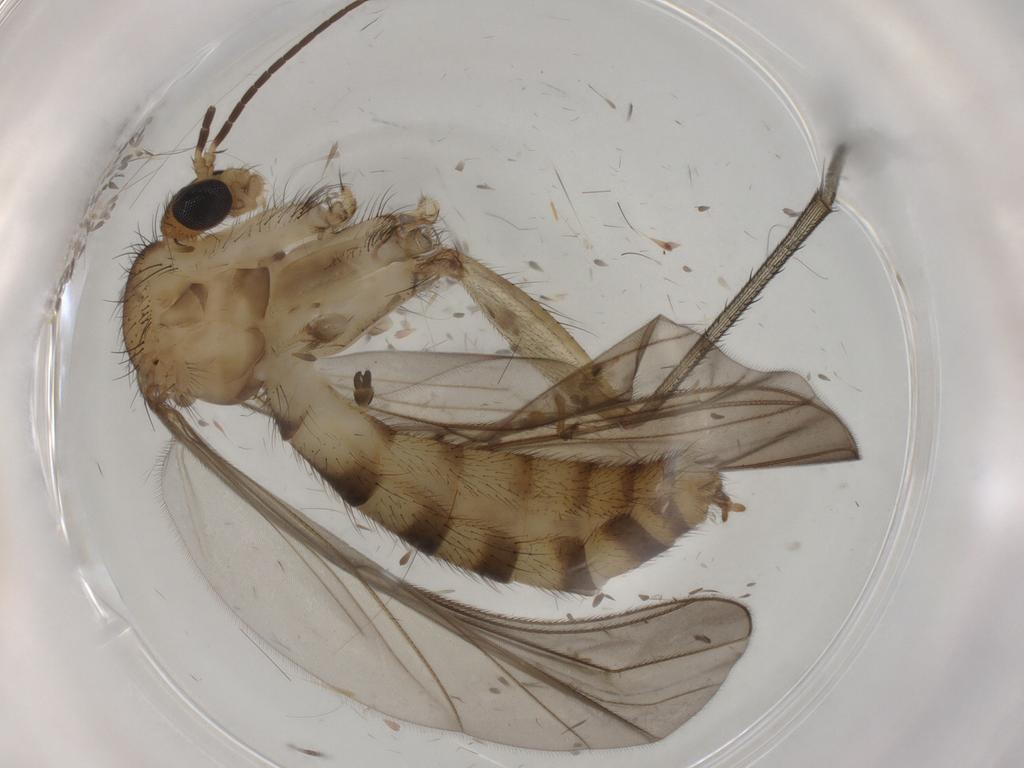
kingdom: Animalia
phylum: Arthropoda
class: Insecta
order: Diptera
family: Mycetophilidae
